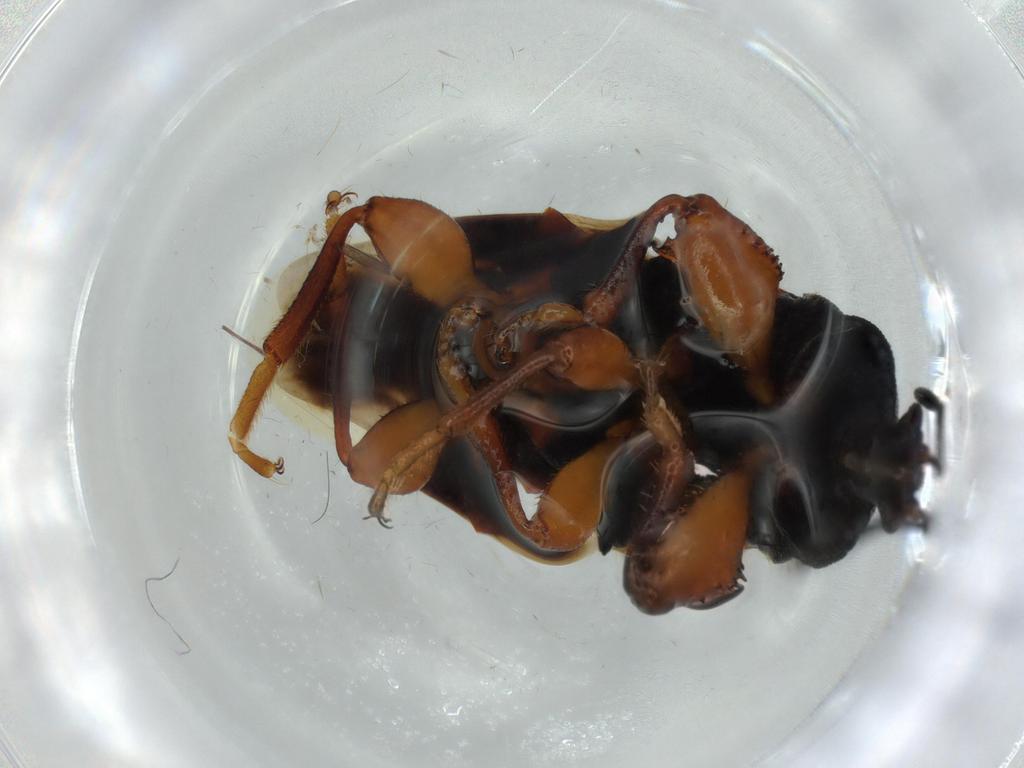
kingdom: Animalia
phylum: Arthropoda
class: Insecta
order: Hemiptera
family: Blissidae
